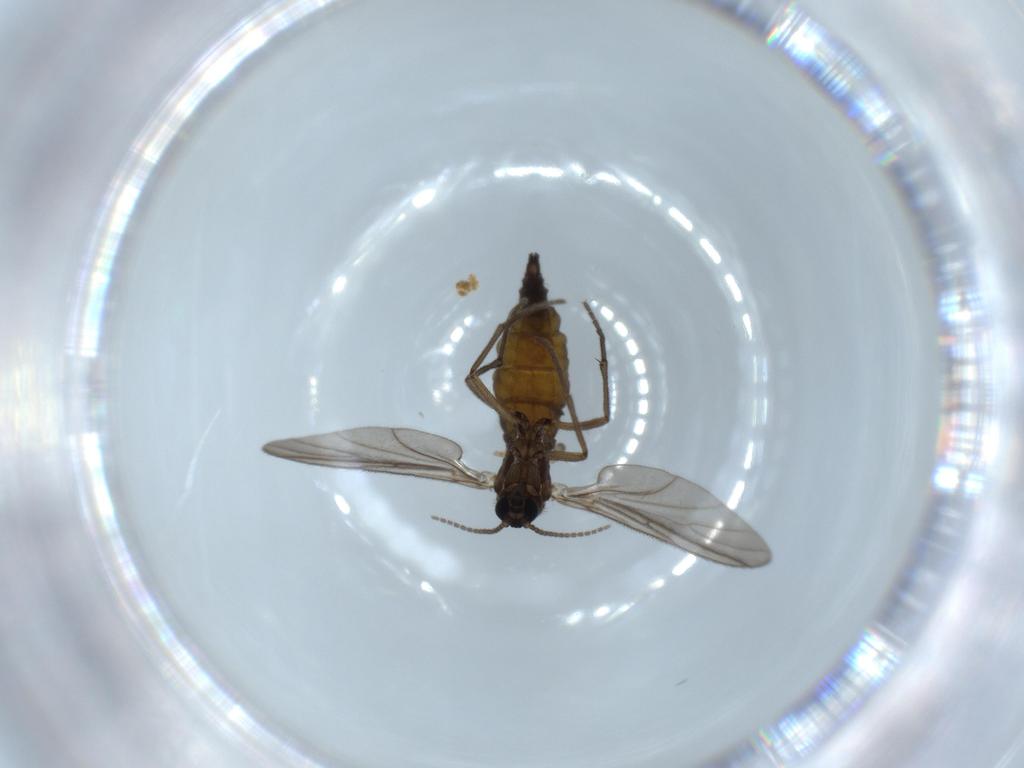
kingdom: Animalia
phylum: Arthropoda
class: Insecta
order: Diptera
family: Sciaridae
